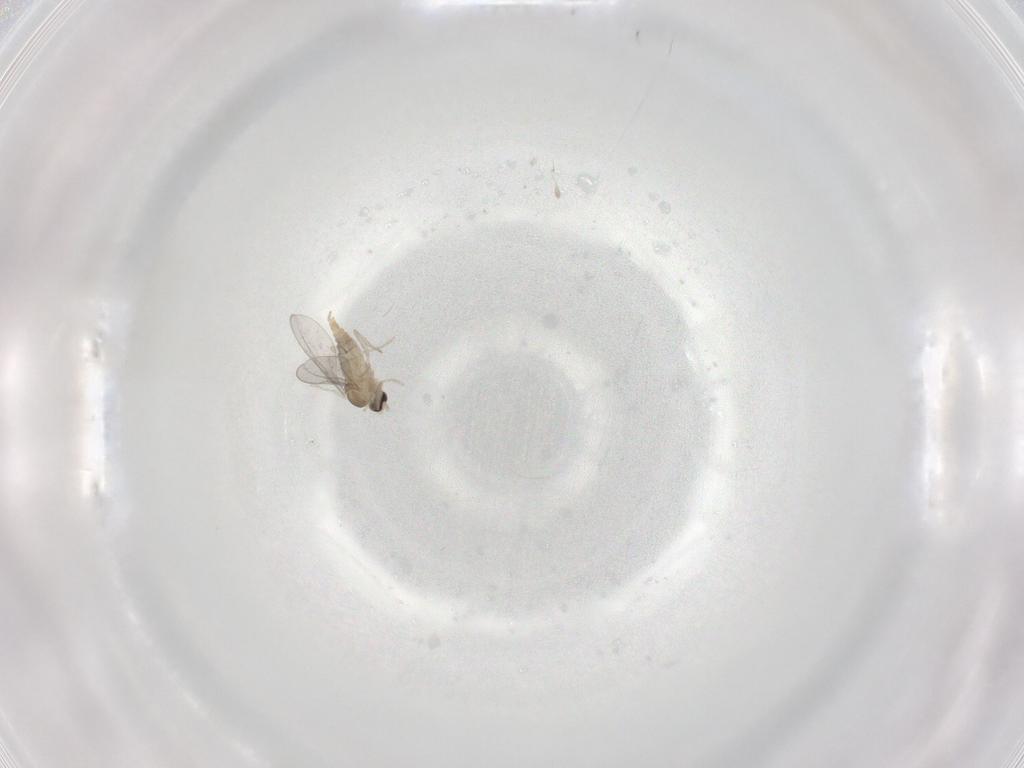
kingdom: Animalia
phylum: Arthropoda
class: Insecta
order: Diptera
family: Cecidomyiidae
